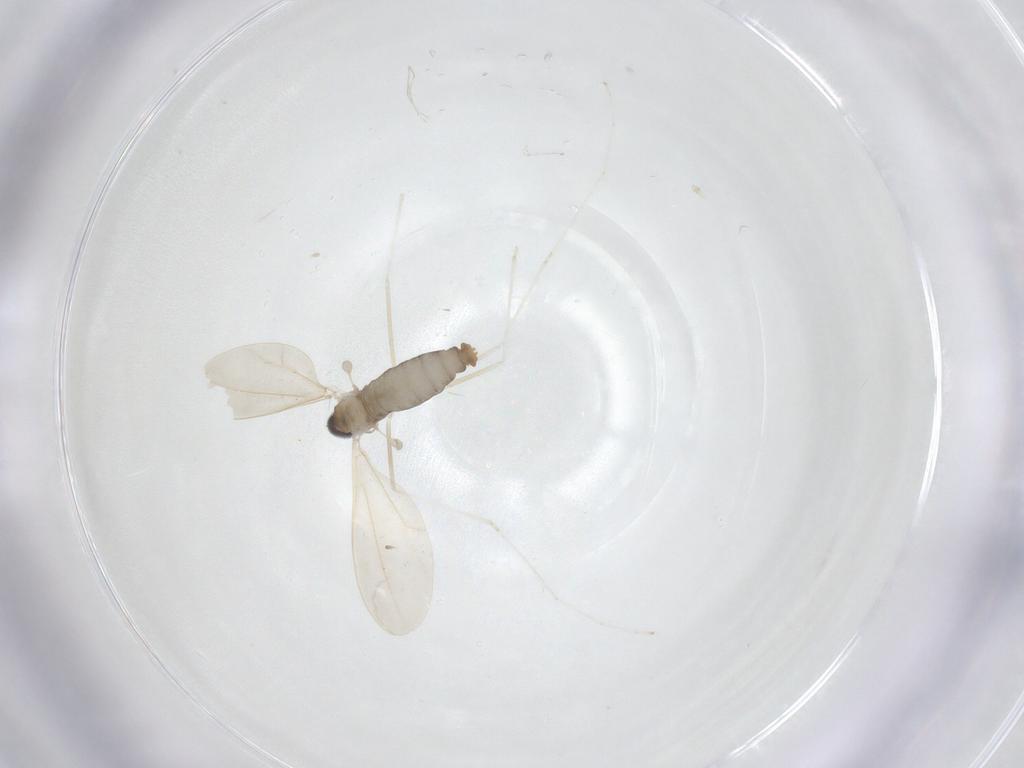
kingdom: Animalia
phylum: Arthropoda
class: Insecta
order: Diptera
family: Cecidomyiidae
